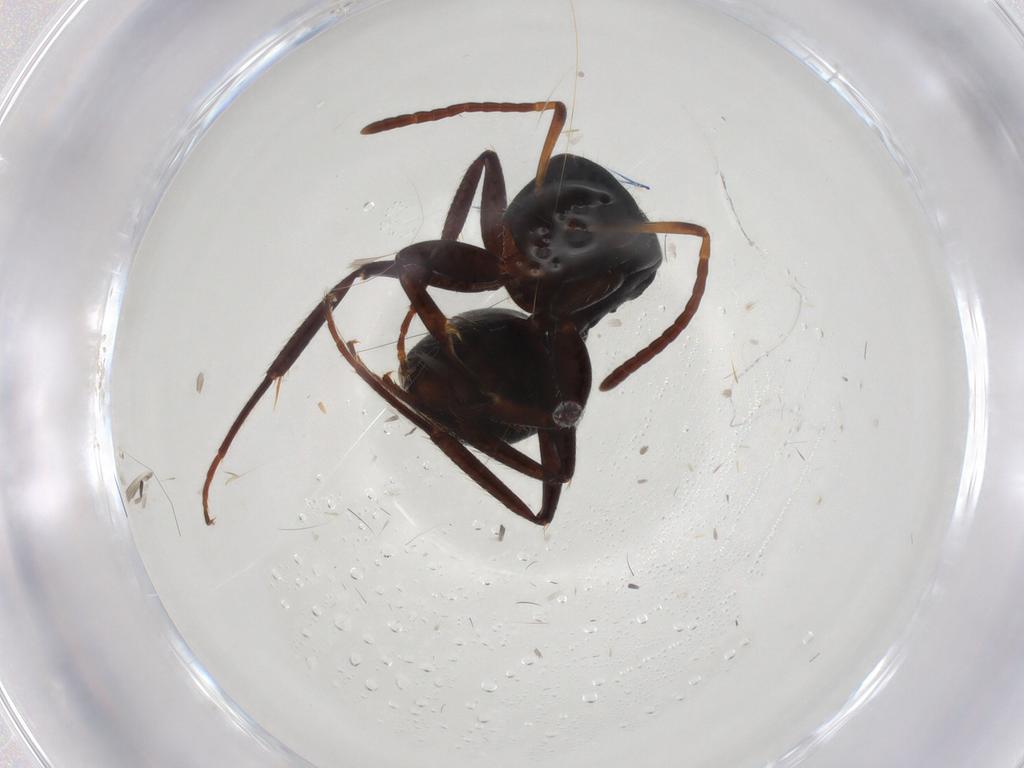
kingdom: Animalia
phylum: Arthropoda
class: Insecta
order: Hymenoptera
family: Formicidae
